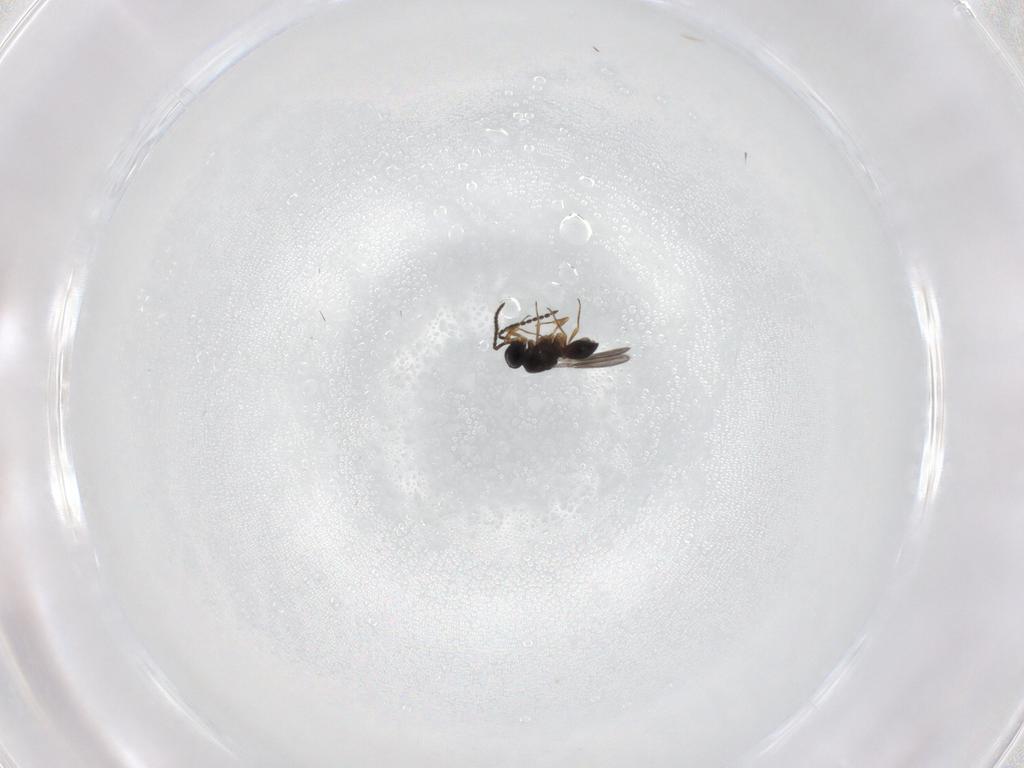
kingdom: Animalia
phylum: Arthropoda
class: Insecta
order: Hymenoptera
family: Scelionidae
